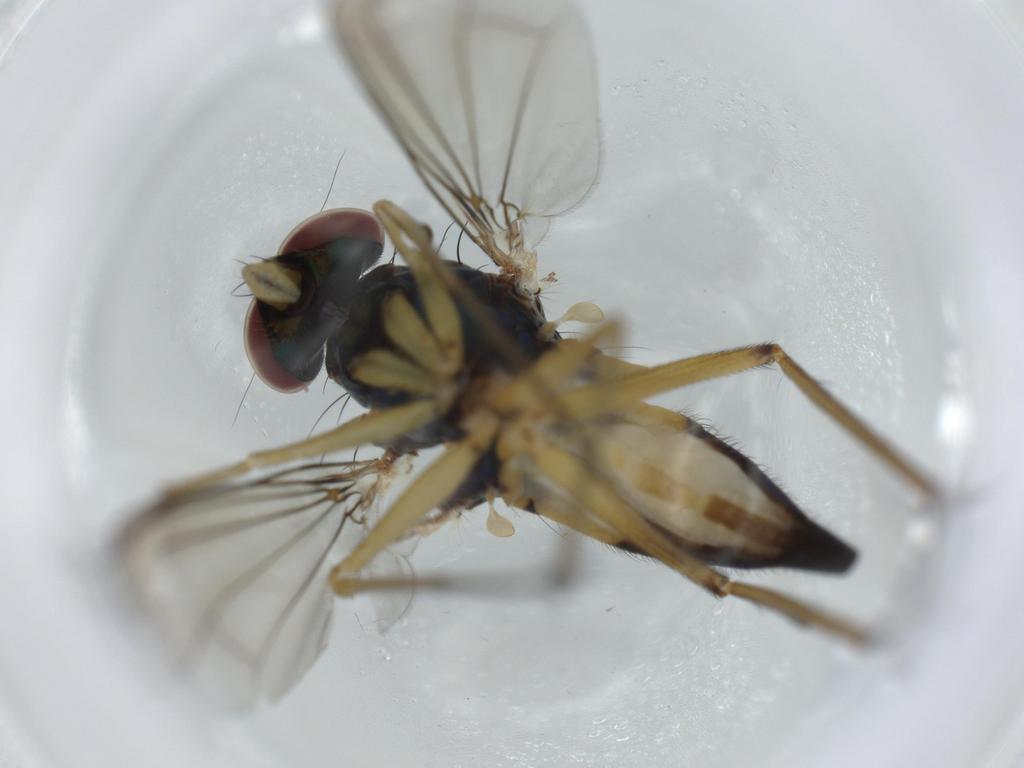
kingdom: Animalia
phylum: Arthropoda
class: Insecta
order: Diptera
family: Dolichopodidae
